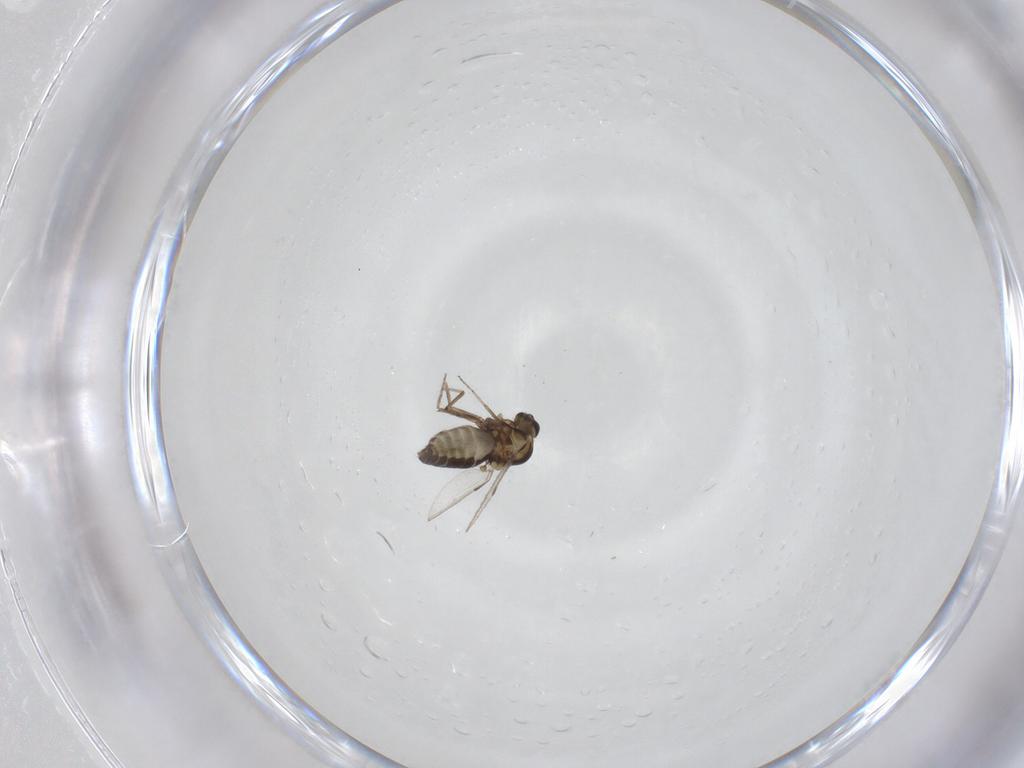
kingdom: Animalia
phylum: Arthropoda
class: Insecta
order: Diptera
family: Ceratopogonidae
